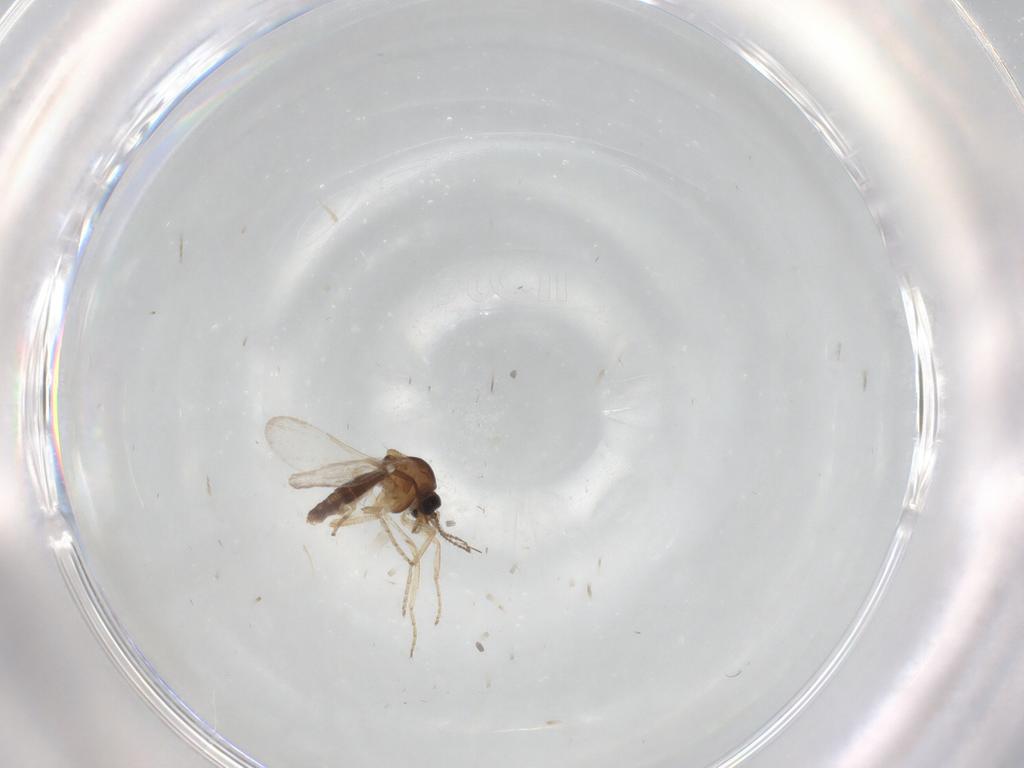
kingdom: Animalia
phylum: Arthropoda
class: Insecta
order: Diptera
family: Ceratopogonidae
